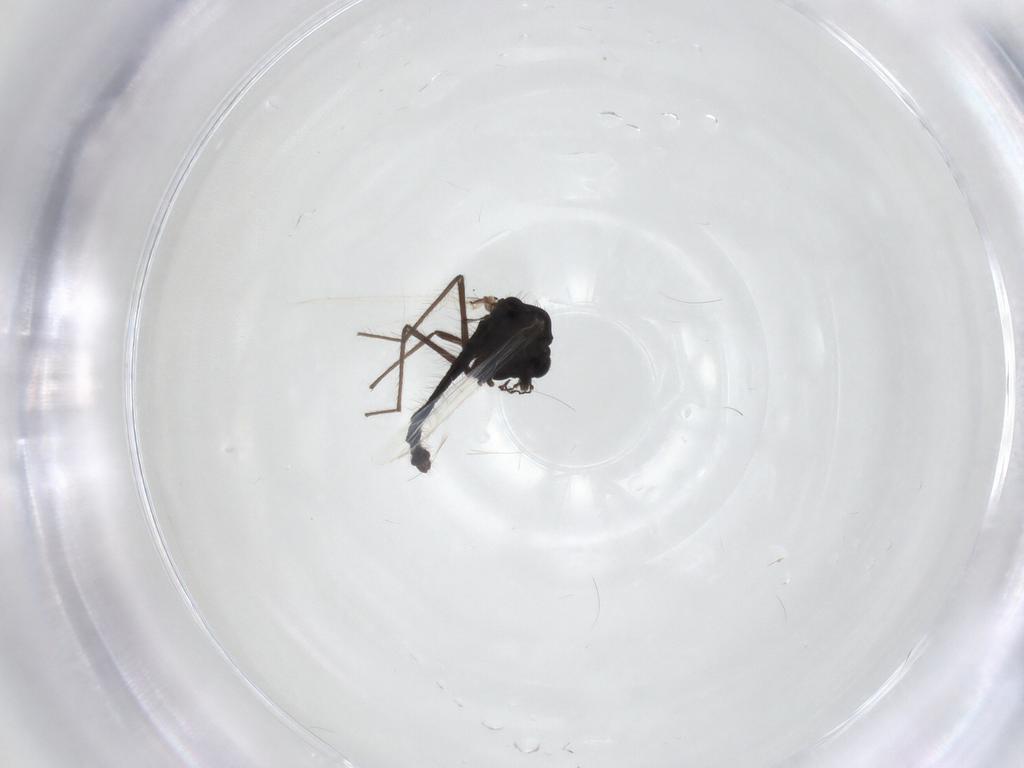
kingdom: Animalia
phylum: Arthropoda
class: Insecta
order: Diptera
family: Chironomidae
